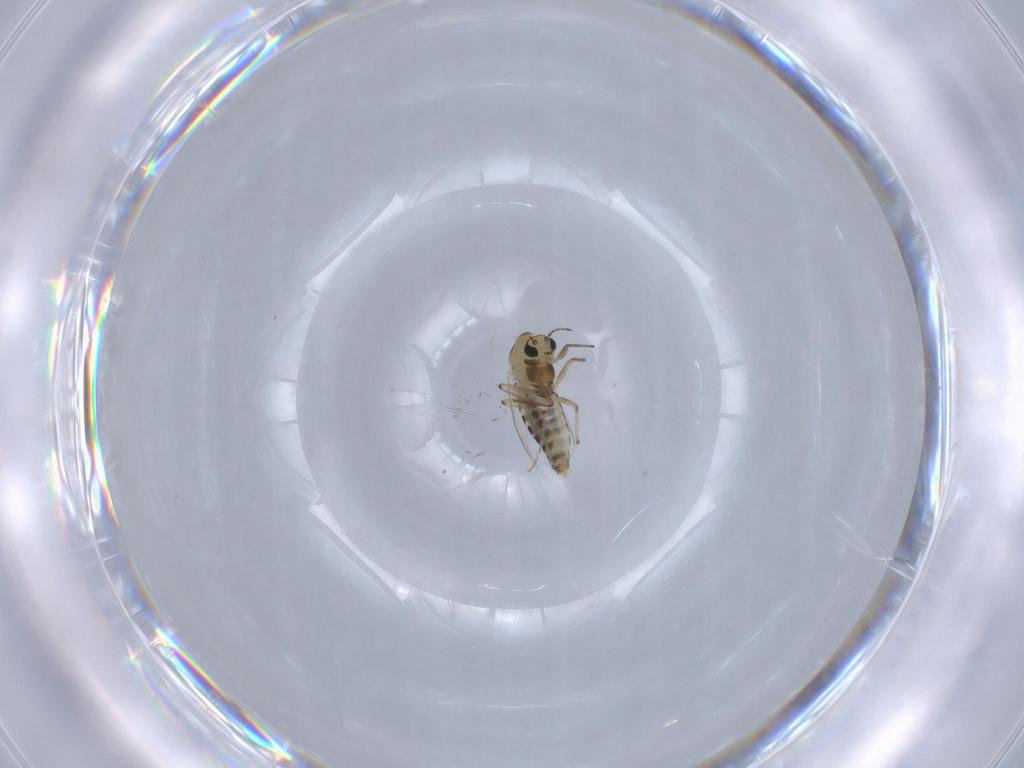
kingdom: Animalia
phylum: Arthropoda
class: Insecta
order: Diptera
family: Chironomidae
